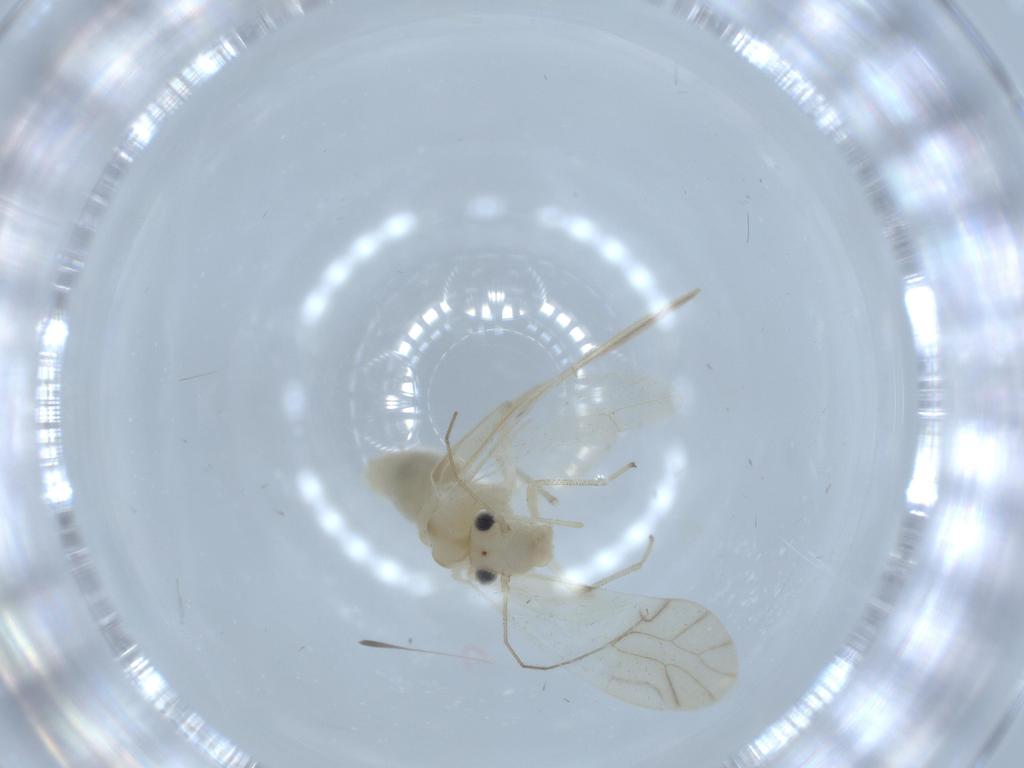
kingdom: Animalia
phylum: Arthropoda
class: Insecta
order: Psocodea
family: Caeciliusidae
